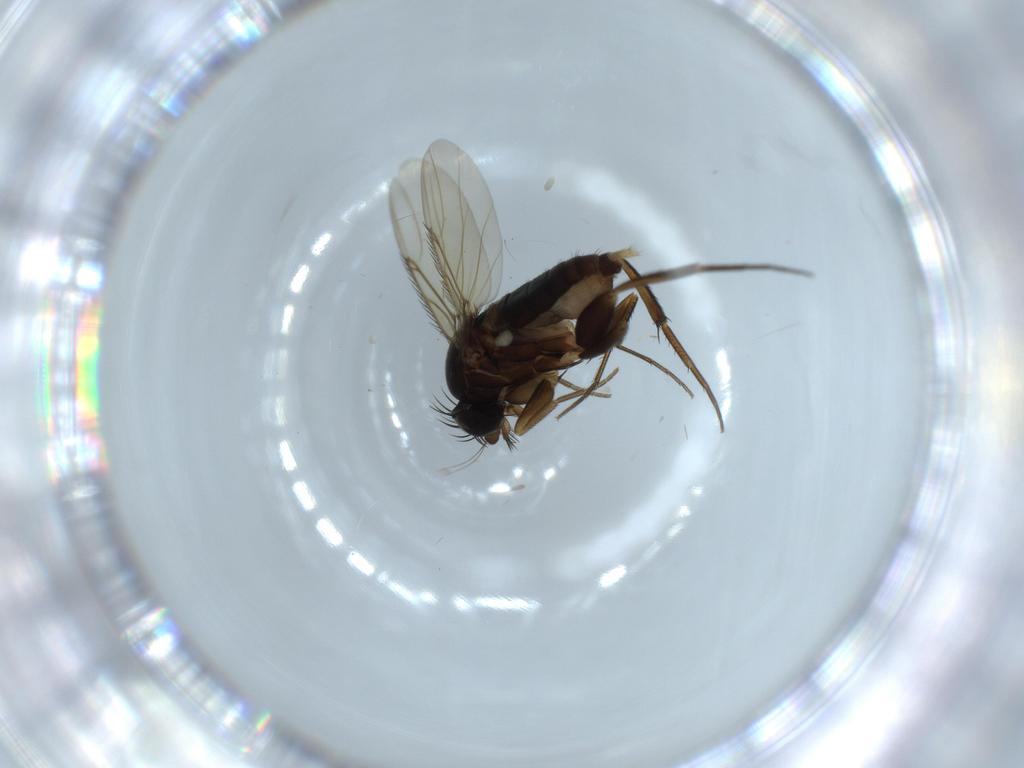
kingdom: Animalia
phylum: Arthropoda
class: Insecta
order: Diptera
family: Phoridae
